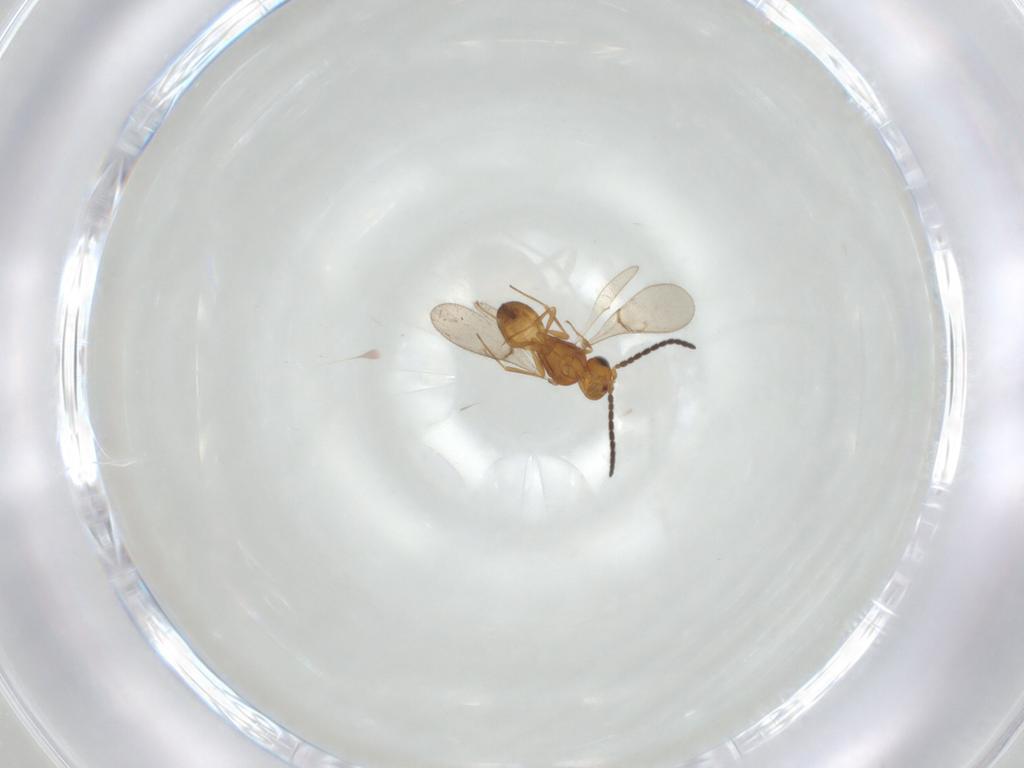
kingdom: Animalia
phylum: Arthropoda
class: Insecta
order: Hymenoptera
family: Scelionidae
